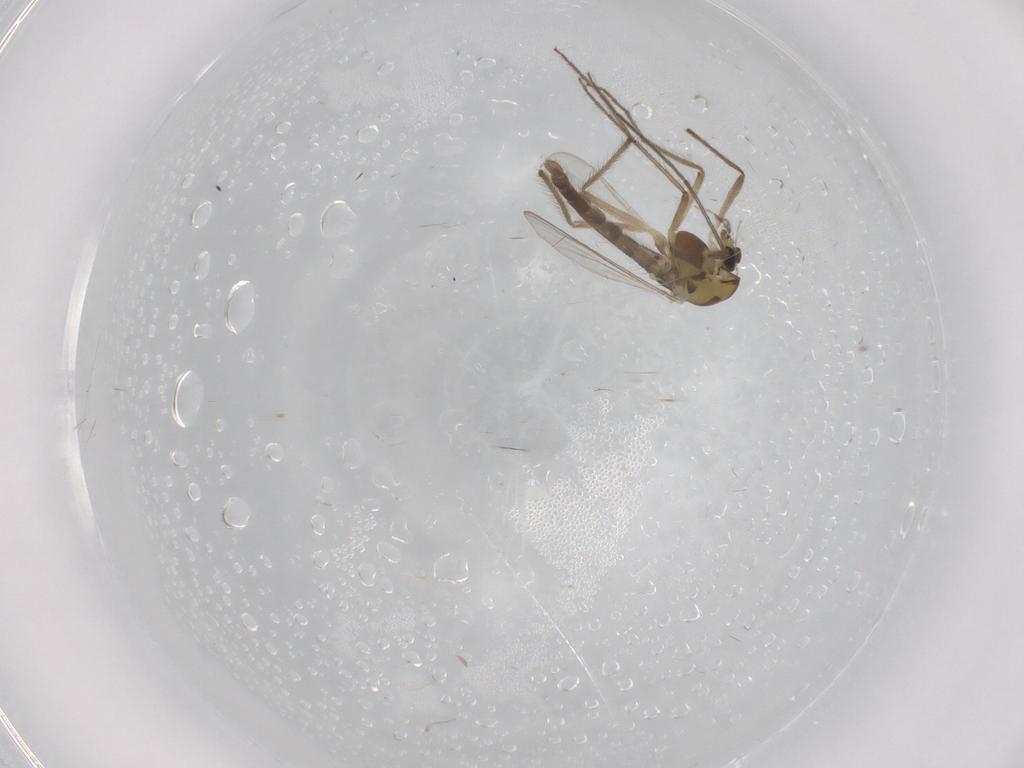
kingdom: Animalia
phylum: Arthropoda
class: Insecta
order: Diptera
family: Chironomidae
